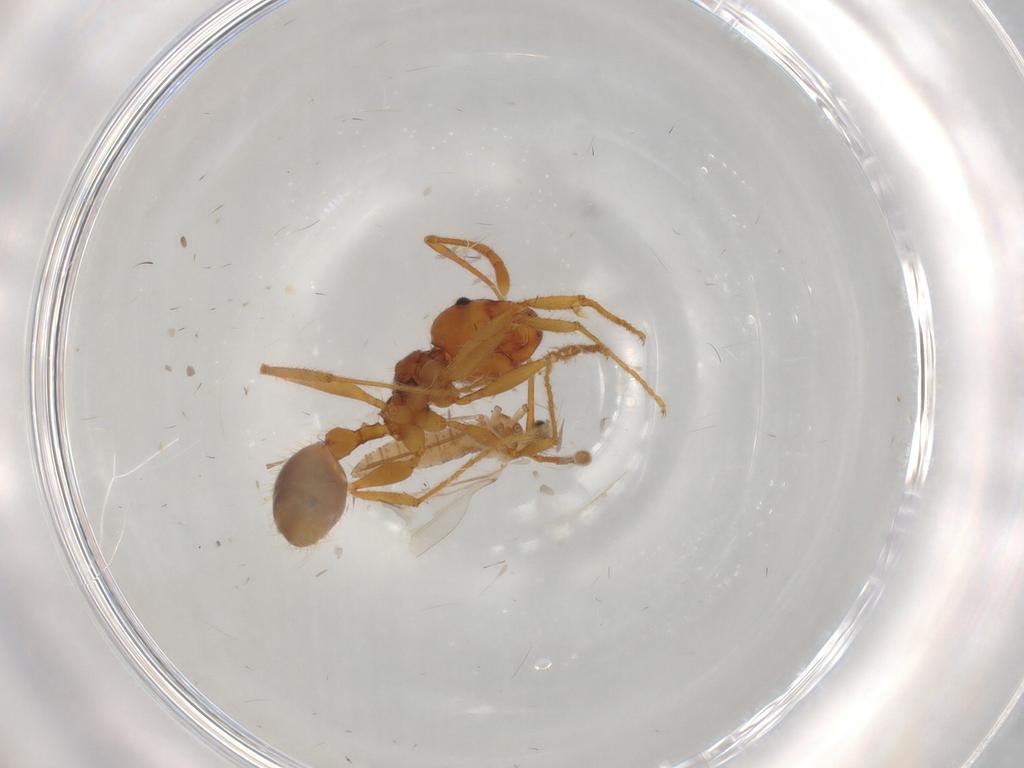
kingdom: Animalia
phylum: Arthropoda
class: Insecta
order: Diptera
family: Cecidomyiidae
